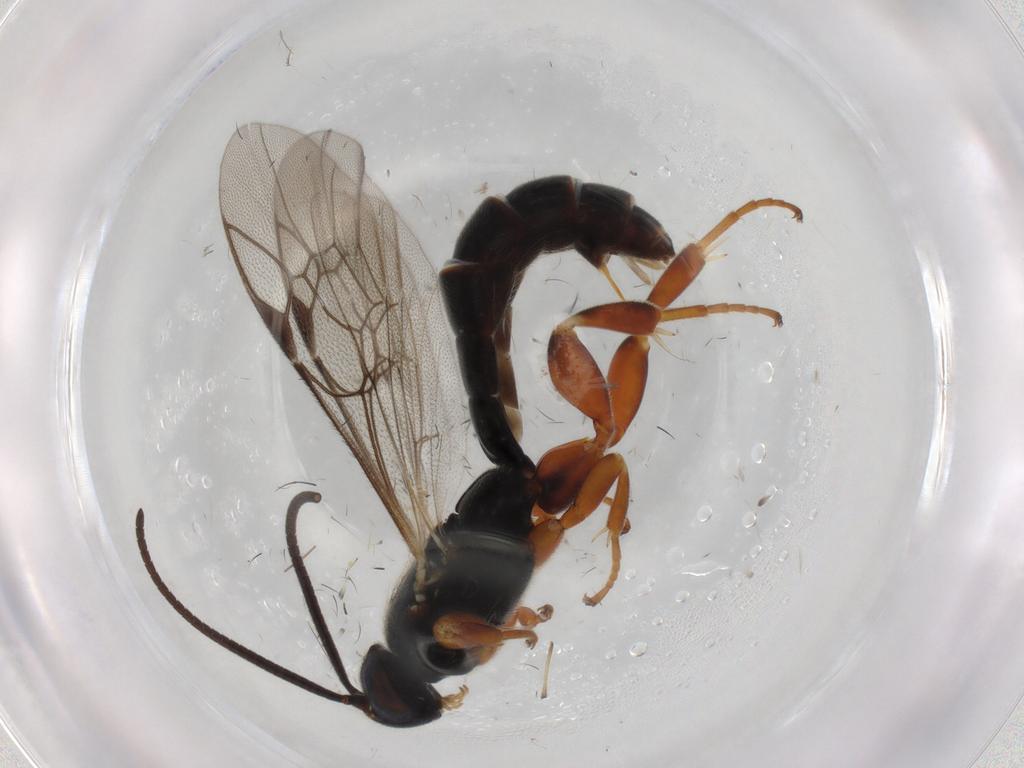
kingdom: Animalia
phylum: Arthropoda
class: Insecta
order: Hymenoptera
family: Ichneumonidae
